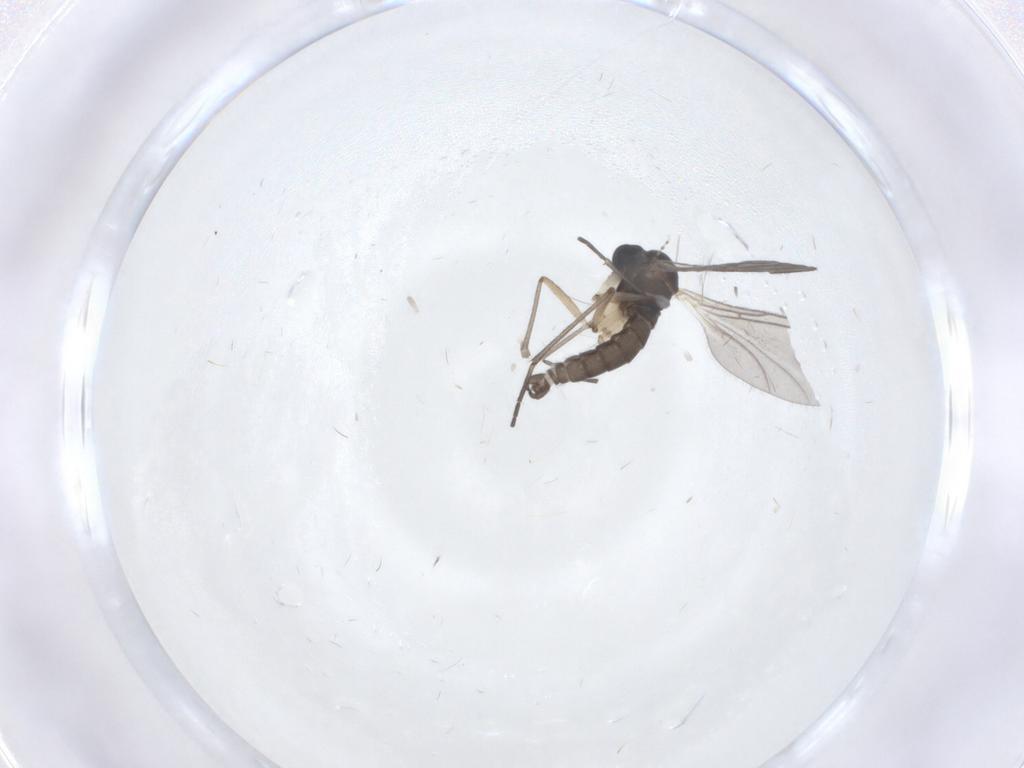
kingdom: Animalia
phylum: Arthropoda
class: Insecta
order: Diptera
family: Sciaridae
